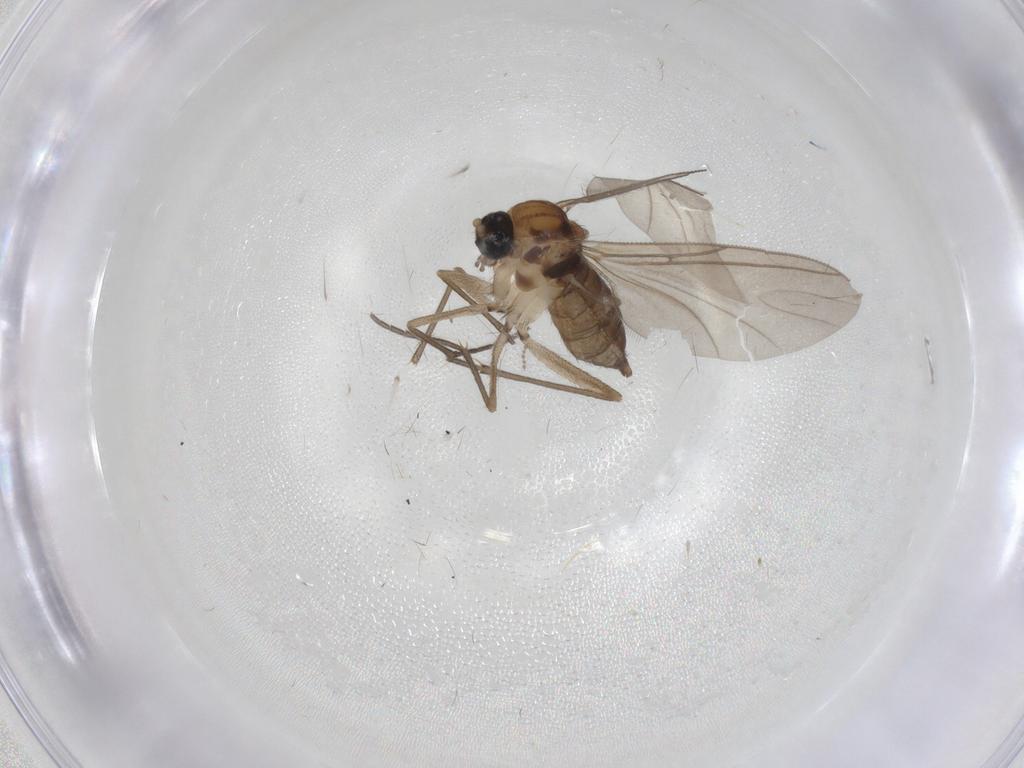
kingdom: Animalia
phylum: Arthropoda
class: Insecta
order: Diptera
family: Sciaridae
